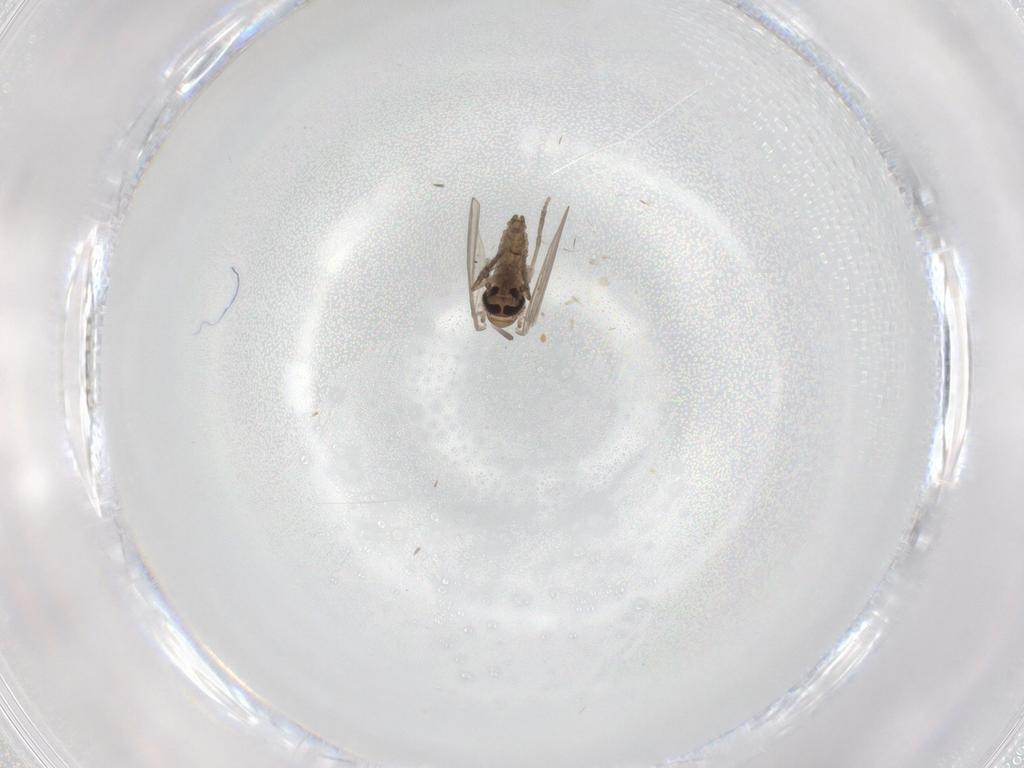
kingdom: Animalia
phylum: Arthropoda
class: Insecta
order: Diptera
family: Psychodidae
